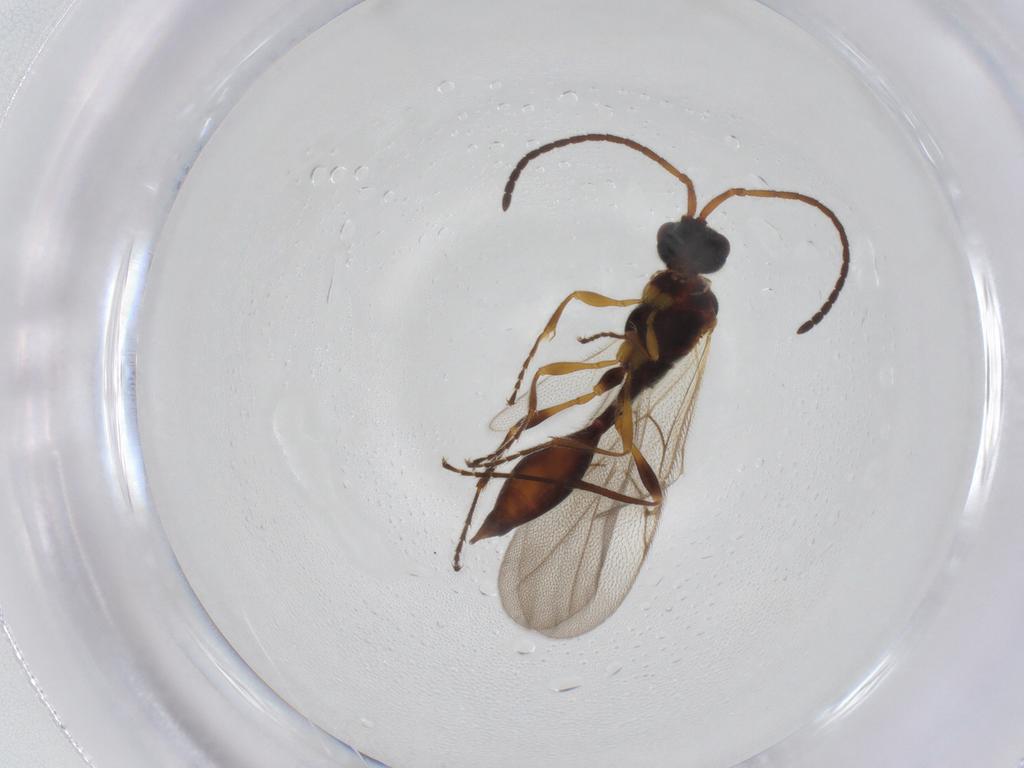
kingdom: Animalia
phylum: Arthropoda
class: Insecta
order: Hymenoptera
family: Diapriidae
